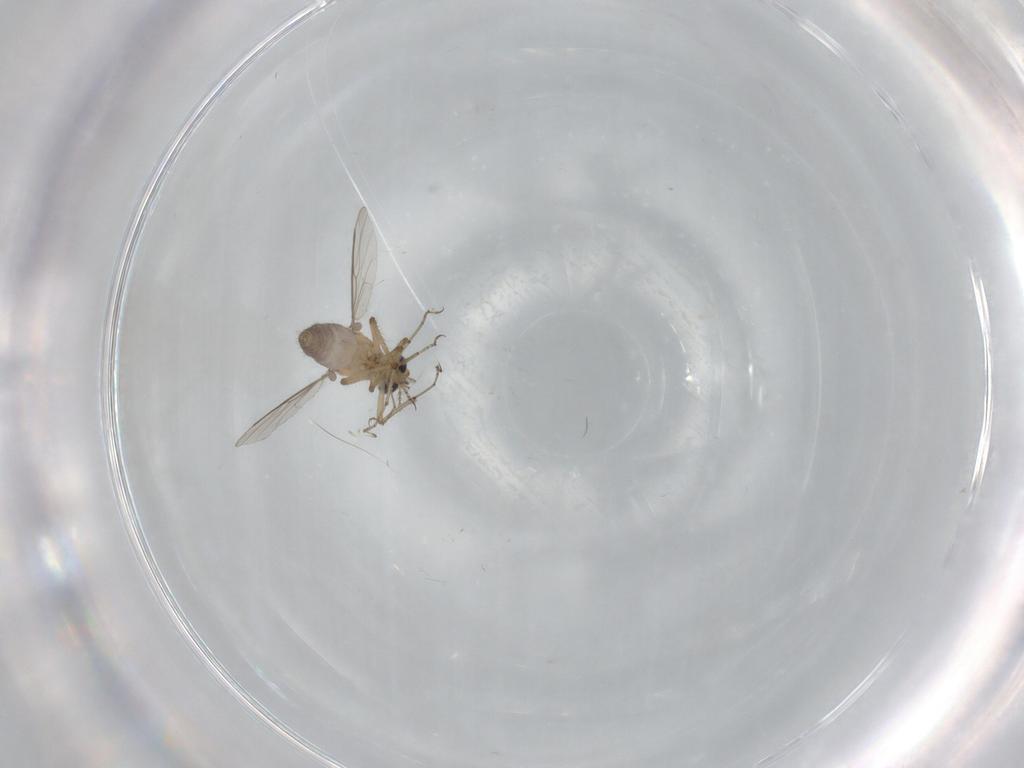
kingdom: Animalia
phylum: Arthropoda
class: Insecta
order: Diptera
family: Ceratopogonidae
